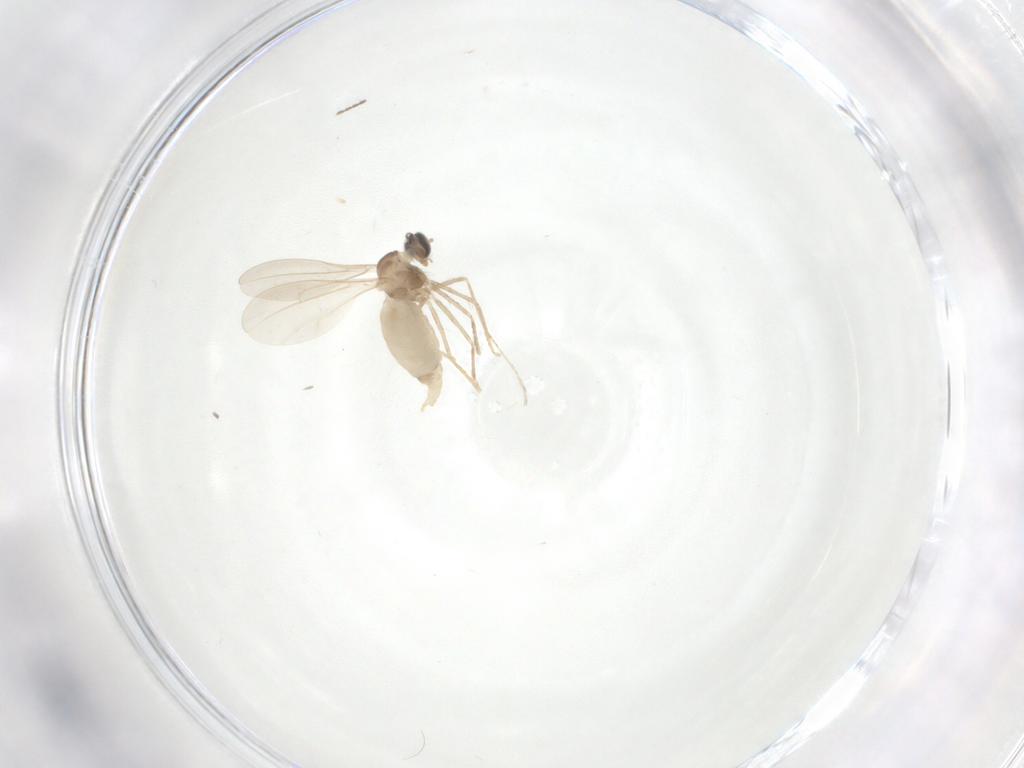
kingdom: Animalia
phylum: Arthropoda
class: Insecta
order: Diptera
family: Cecidomyiidae
